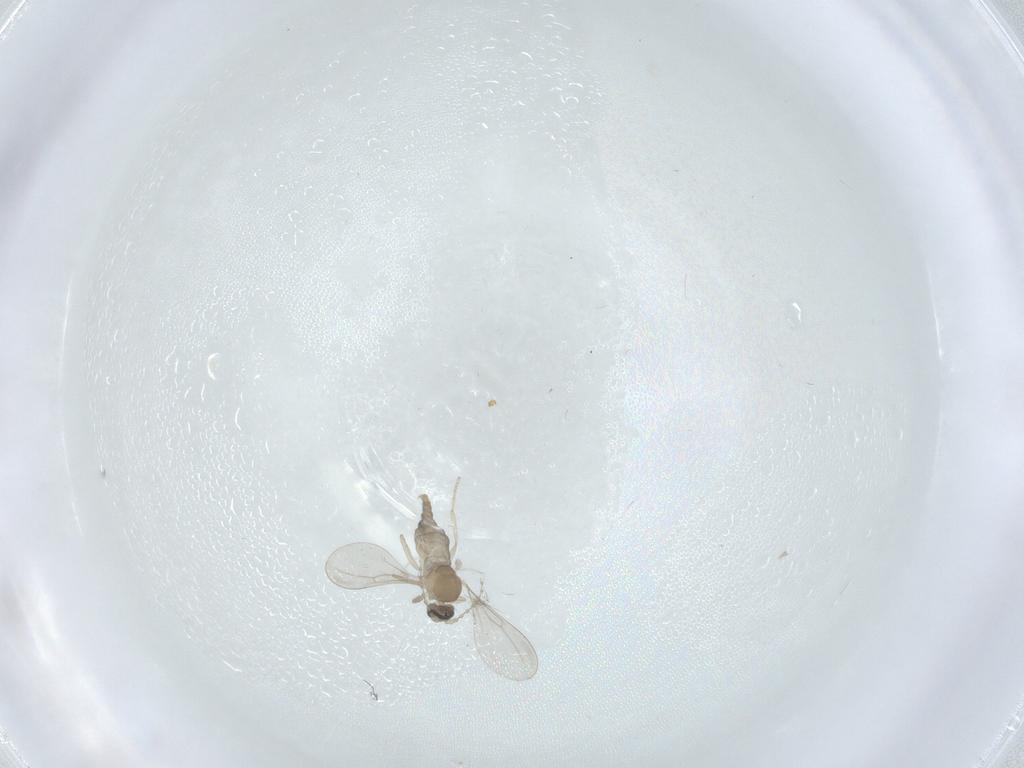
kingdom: Animalia
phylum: Arthropoda
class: Insecta
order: Diptera
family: Cecidomyiidae
